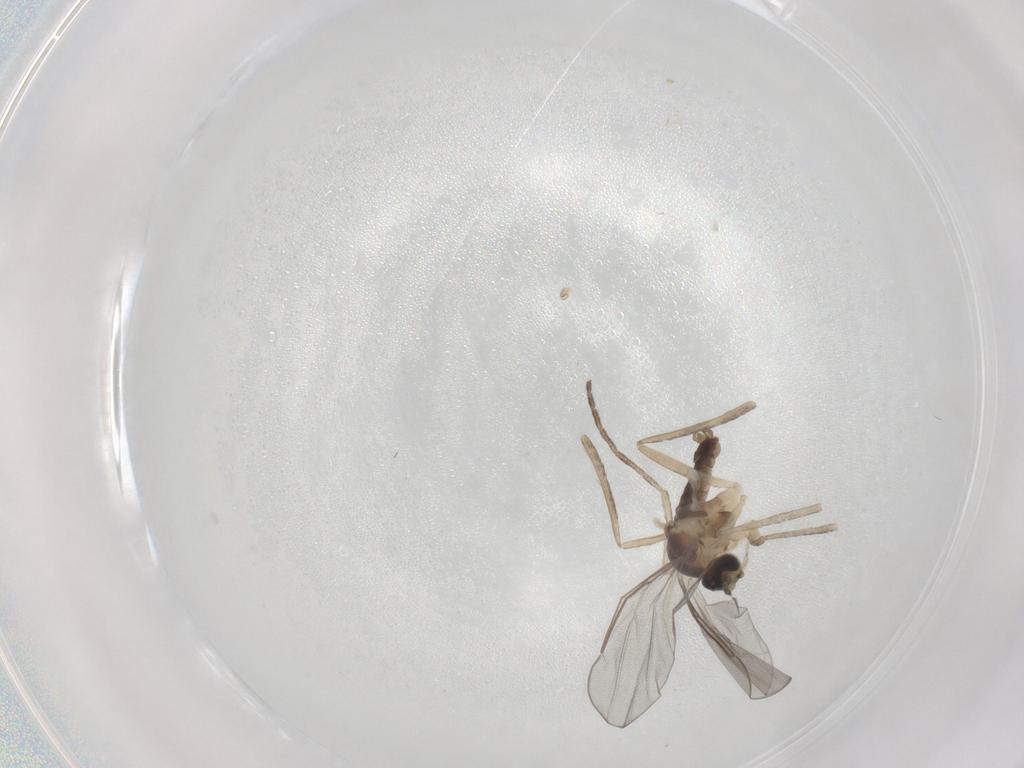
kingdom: Animalia
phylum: Arthropoda
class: Insecta
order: Diptera
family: Cecidomyiidae
